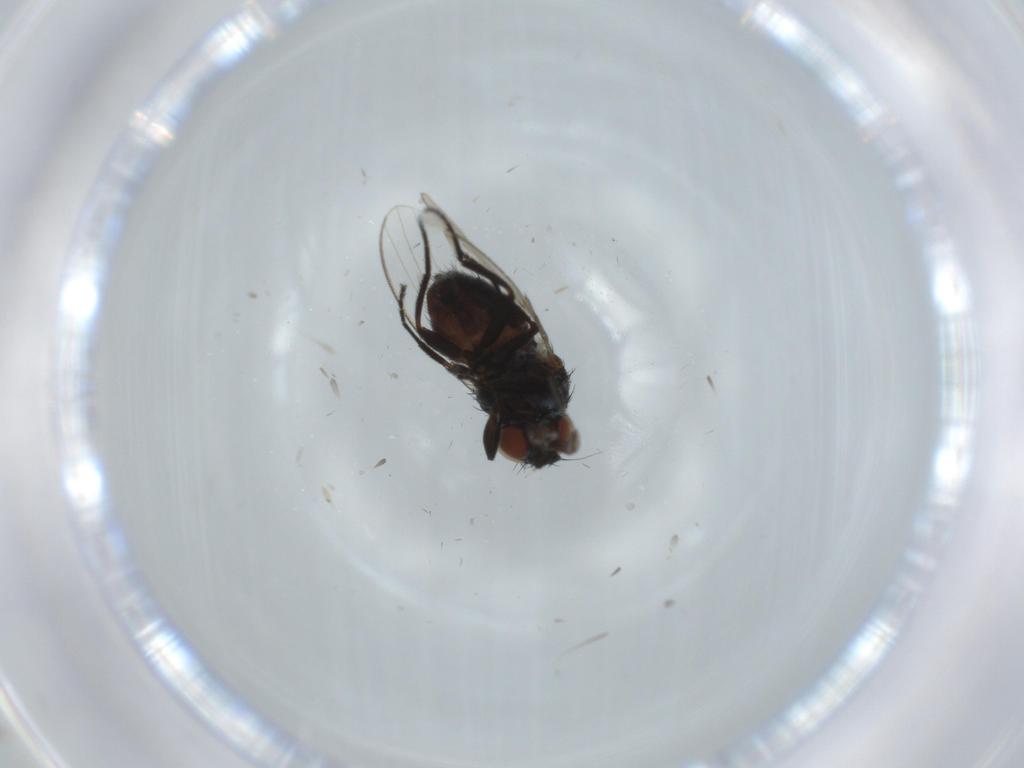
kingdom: Animalia
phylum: Arthropoda
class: Insecta
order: Diptera
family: Milichiidae
